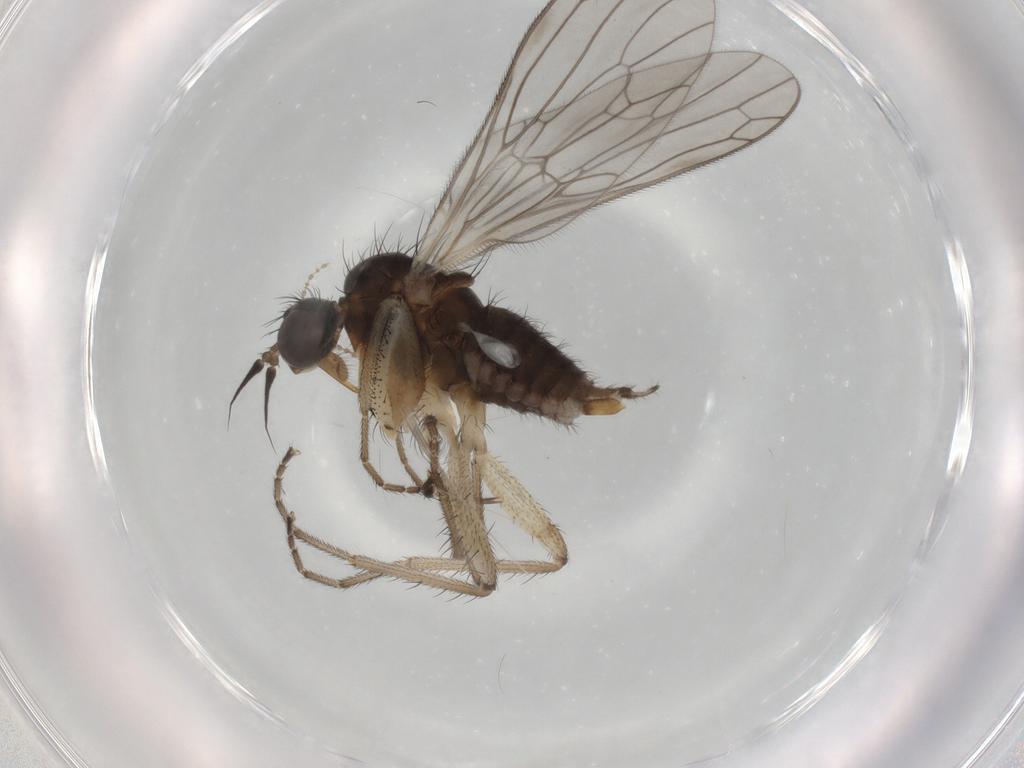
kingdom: Animalia
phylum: Arthropoda
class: Insecta
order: Diptera
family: Sciaridae
